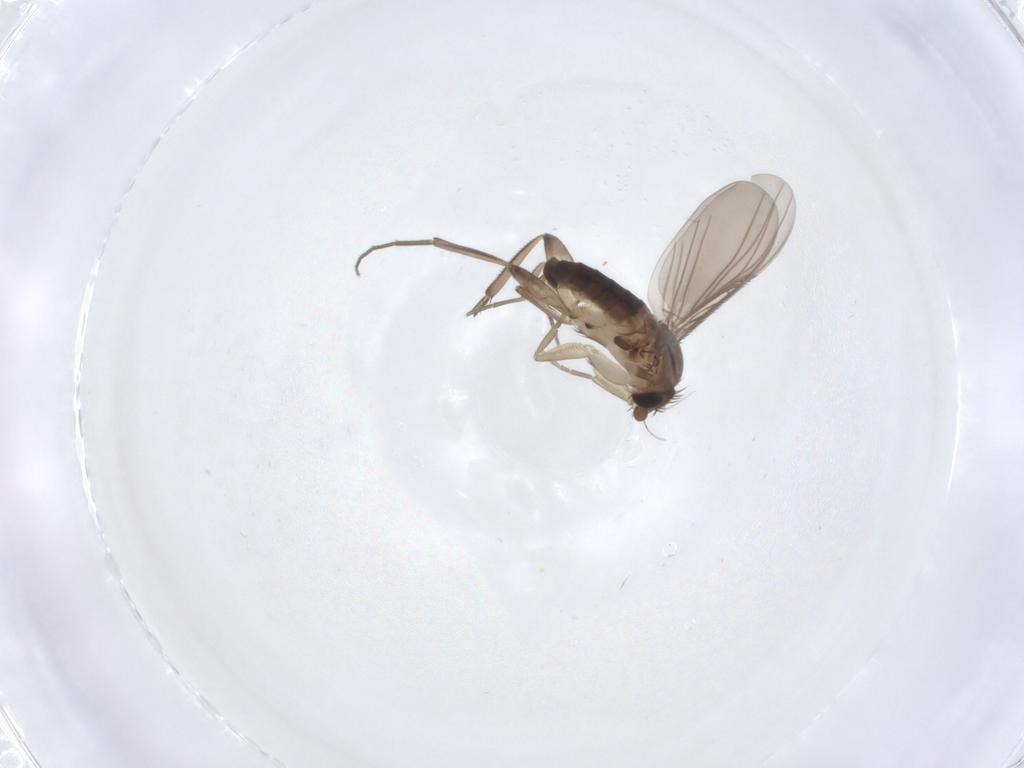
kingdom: Animalia
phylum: Arthropoda
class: Insecta
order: Diptera
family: Phoridae
